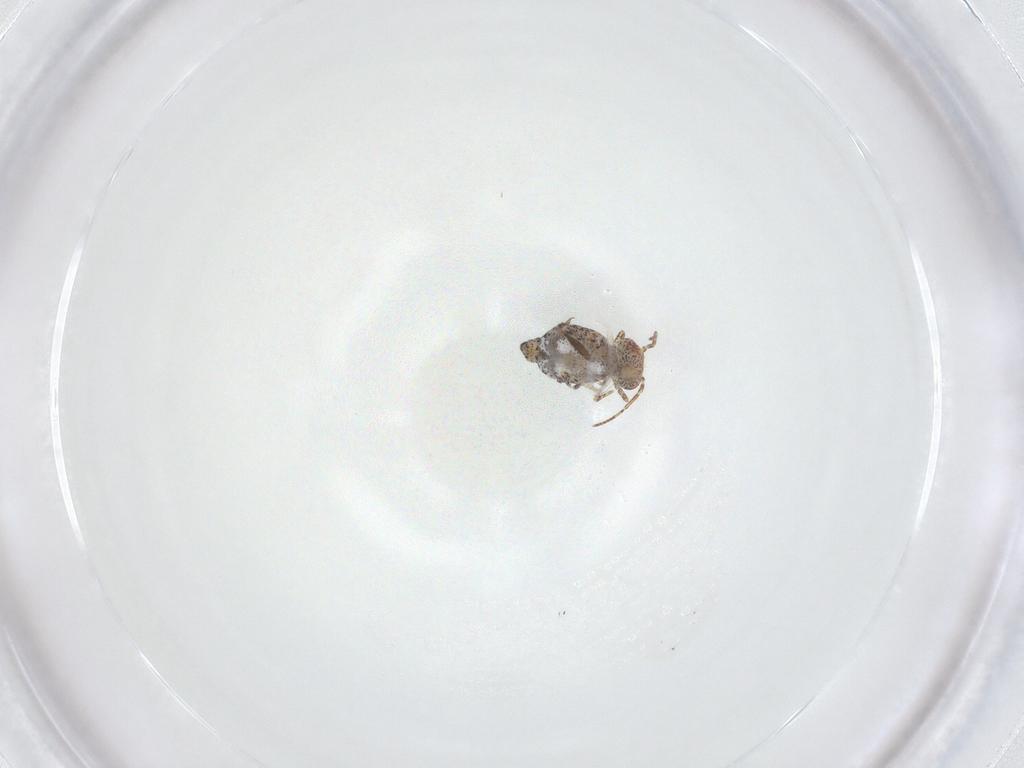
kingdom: Animalia
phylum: Arthropoda
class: Collembola
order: Symphypleona
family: Bourletiellidae
